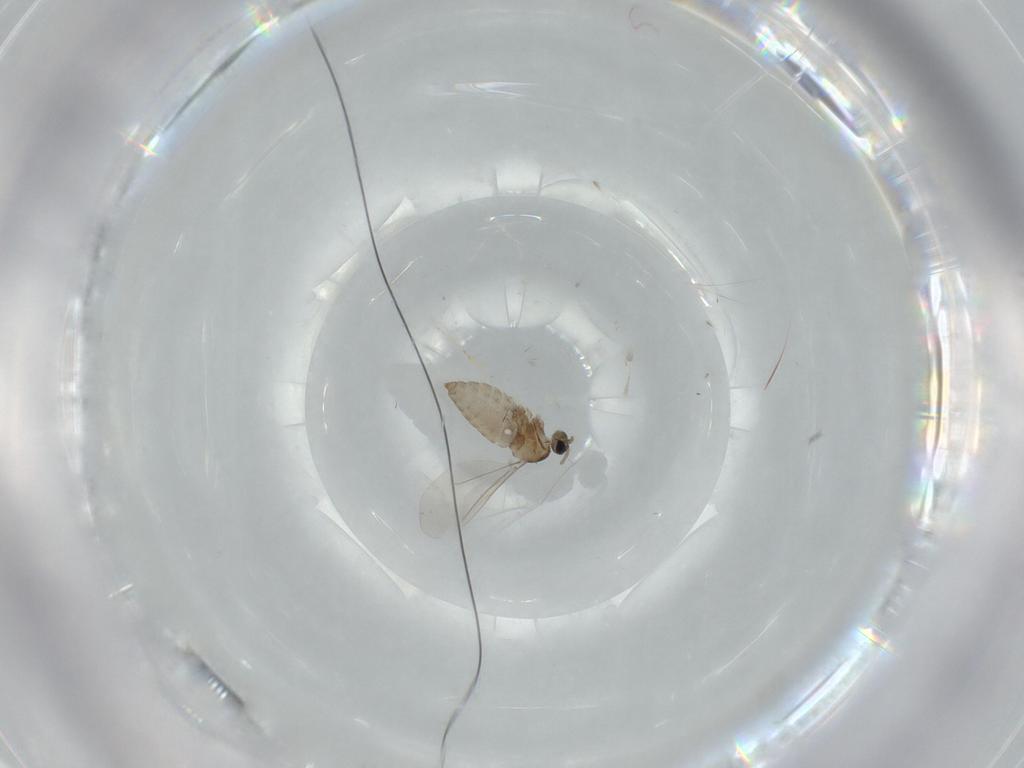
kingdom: Animalia
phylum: Arthropoda
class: Insecta
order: Diptera
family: Cecidomyiidae
